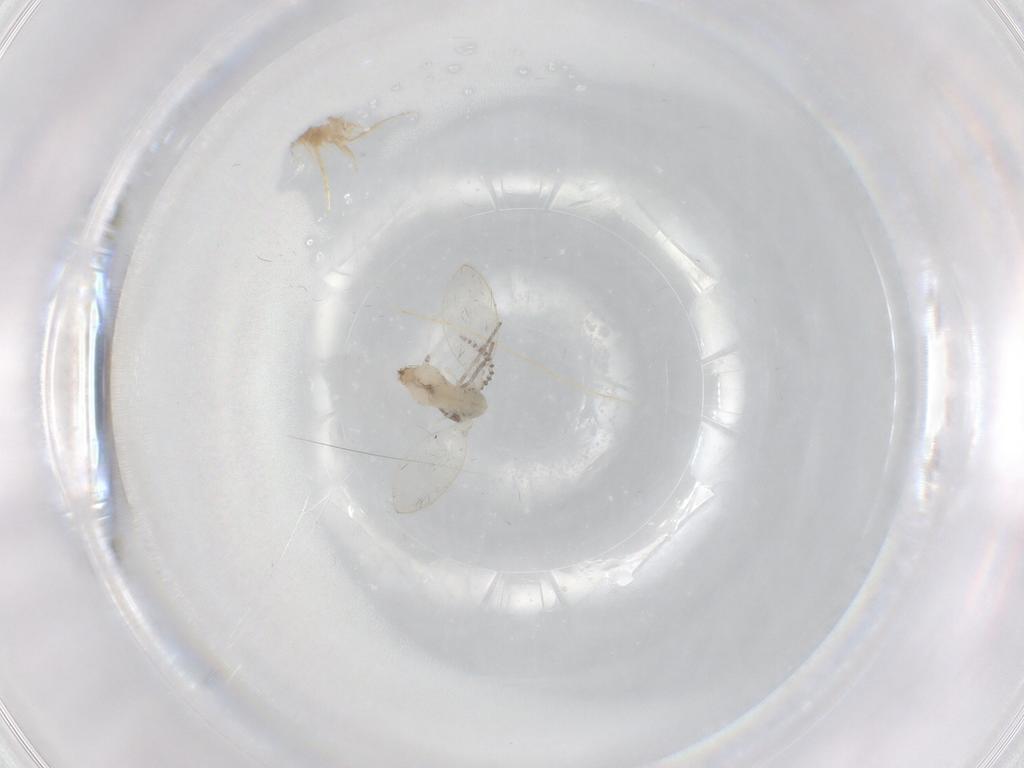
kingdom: Animalia
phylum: Arthropoda
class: Insecta
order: Diptera
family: Psychodidae
